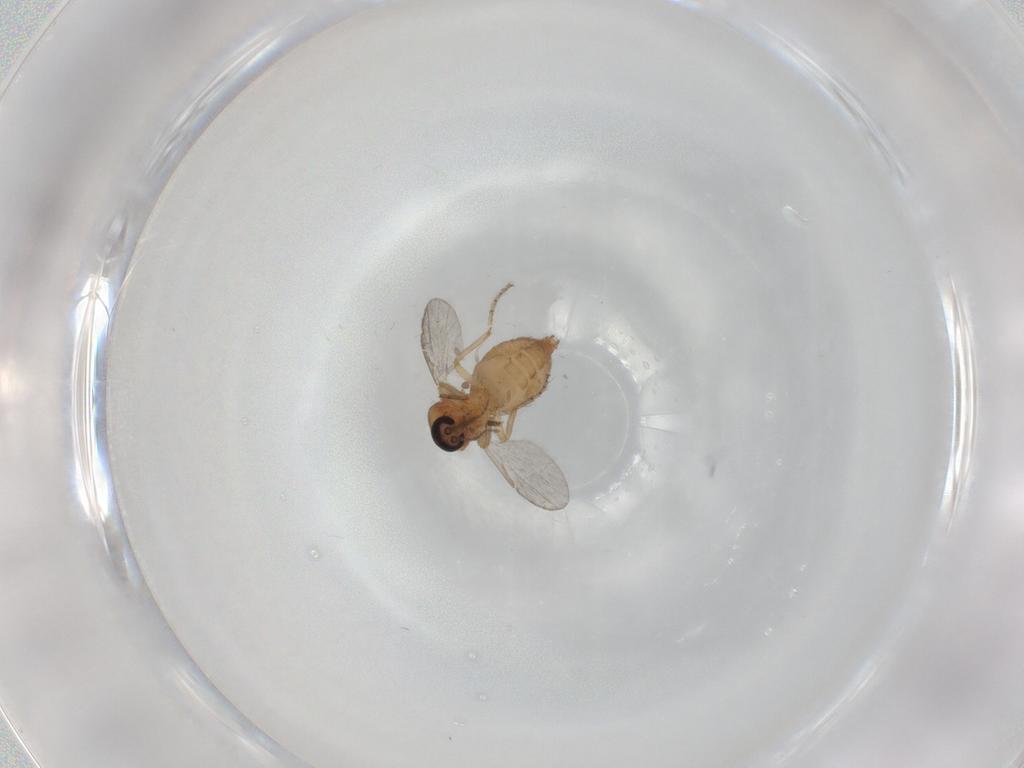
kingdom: Animalia
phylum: Arthropoda
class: Insecta
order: Diptera
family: Ceratopogonidae
